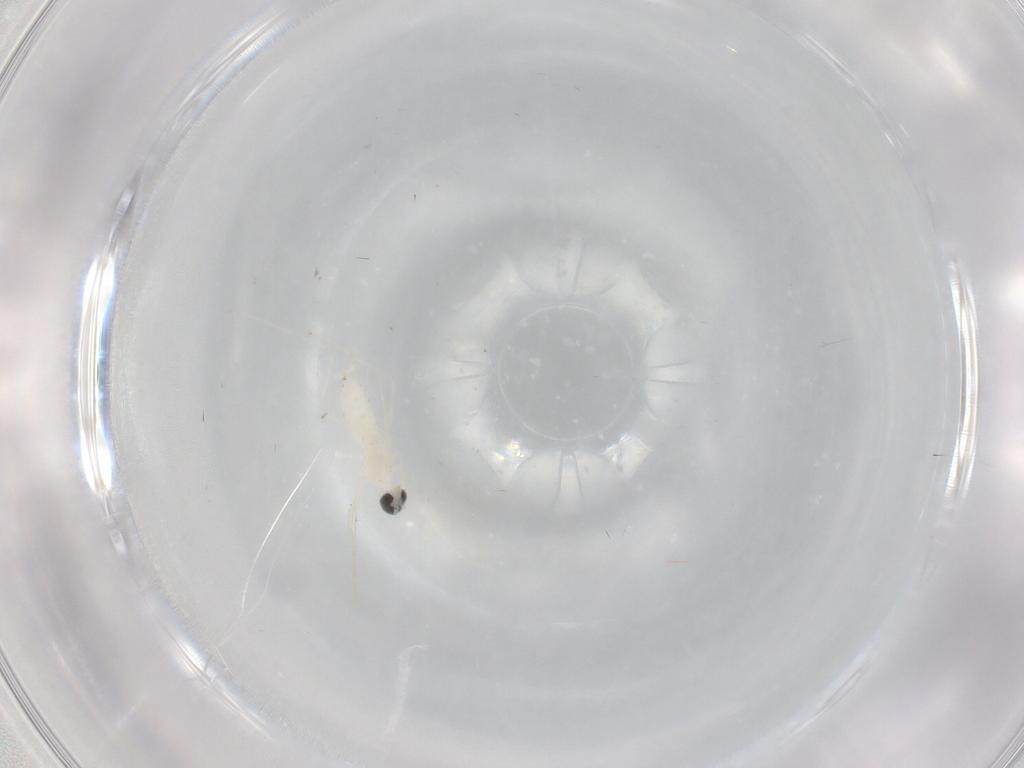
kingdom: Animalia
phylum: Arthropoda
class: Insecta
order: Diptera
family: Cecidomyiidae
